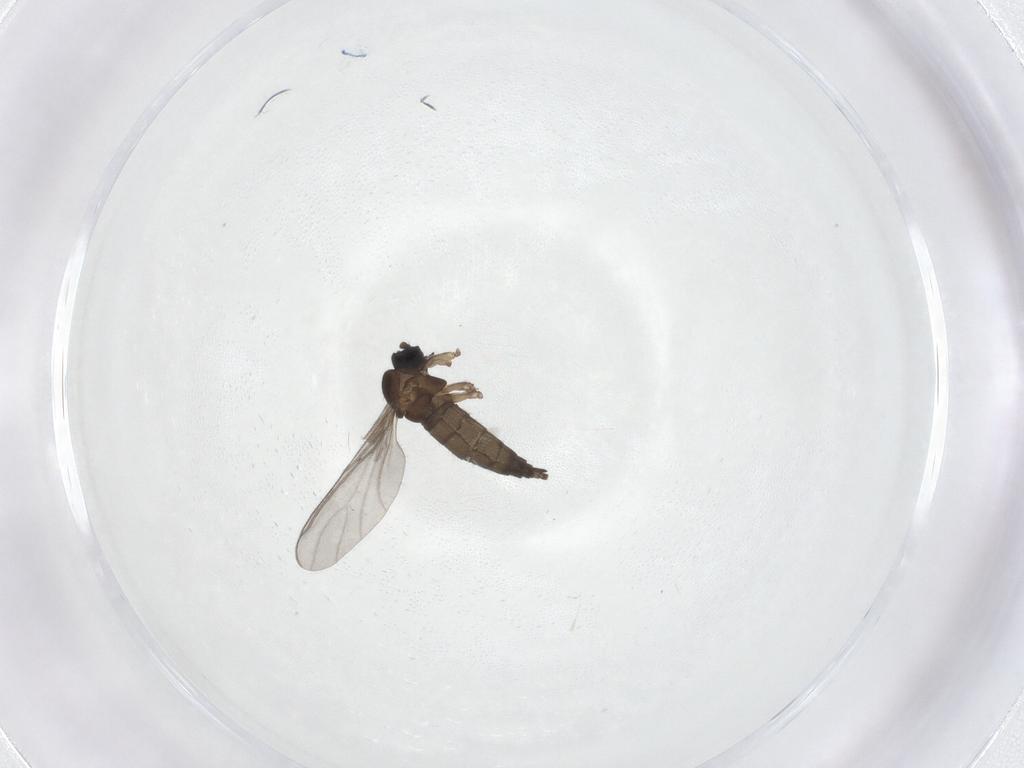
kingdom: Animalia
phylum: Arthropoda
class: Insecta
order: Diptera
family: Sciaridae
